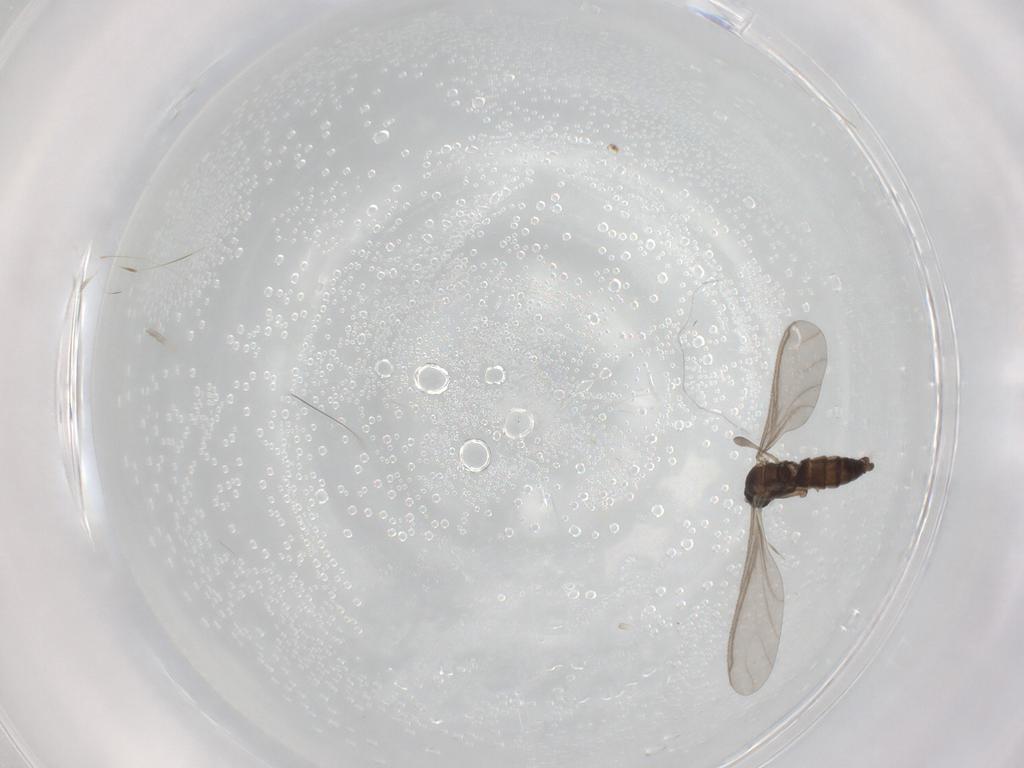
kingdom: Animalia
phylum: Arthropoda
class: Insecta
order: Diptera
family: Sciaridae
